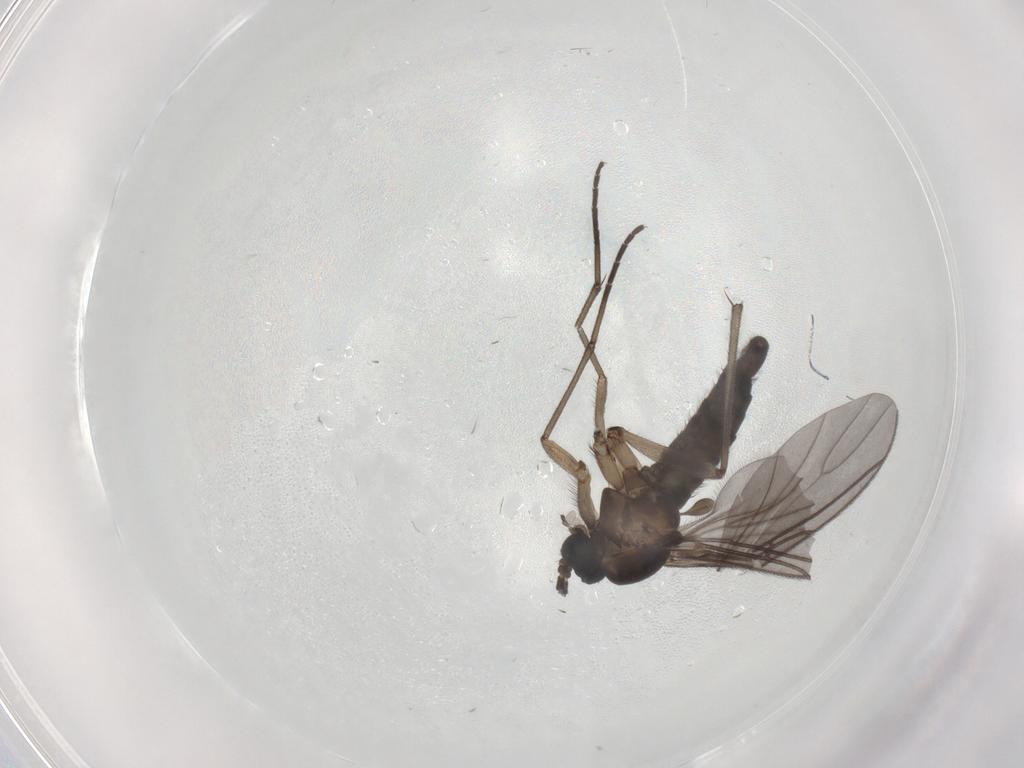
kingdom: Animalia
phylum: Arthropoda
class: Insecta
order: Diptera
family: Sciaridae
